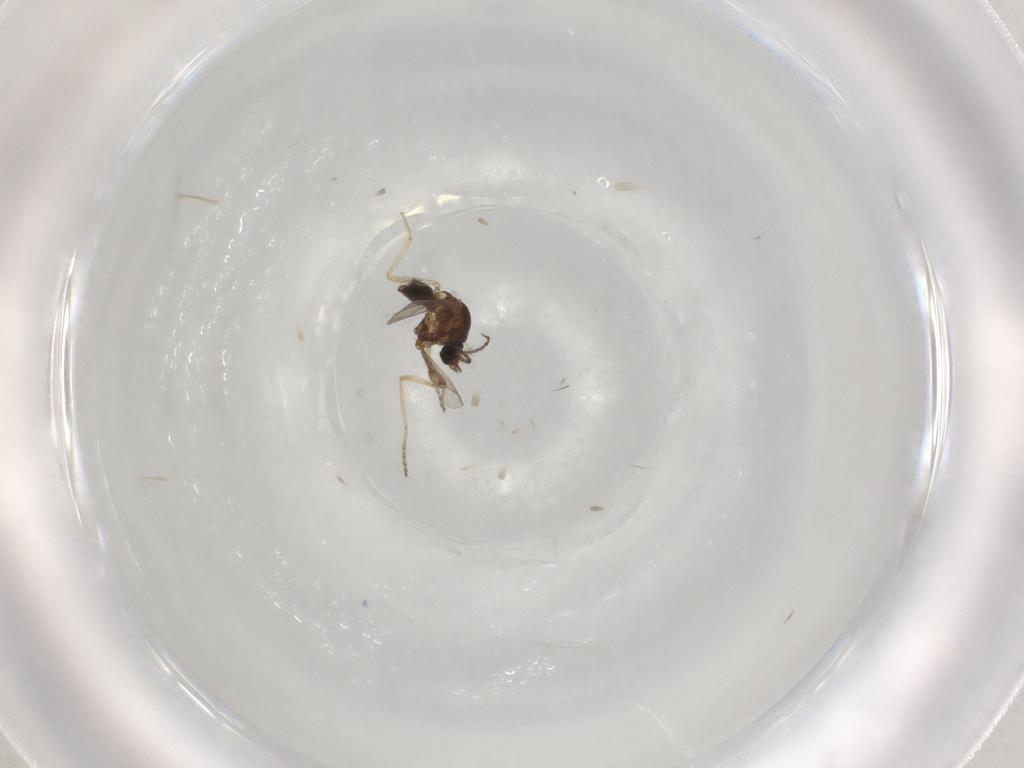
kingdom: Animalia
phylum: Arthropoda
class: Insecta
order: Diptera
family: Ceratopogonidae
